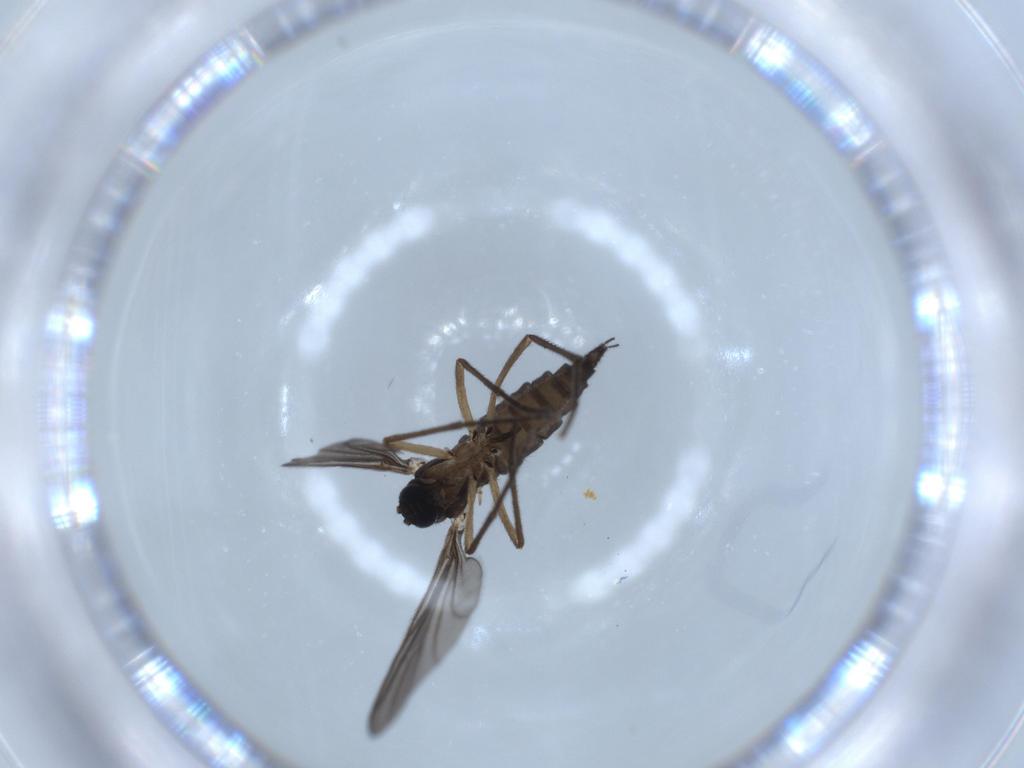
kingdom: Animalia
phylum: Arthropoda
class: Insecta
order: Diptera
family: Sciaridae
